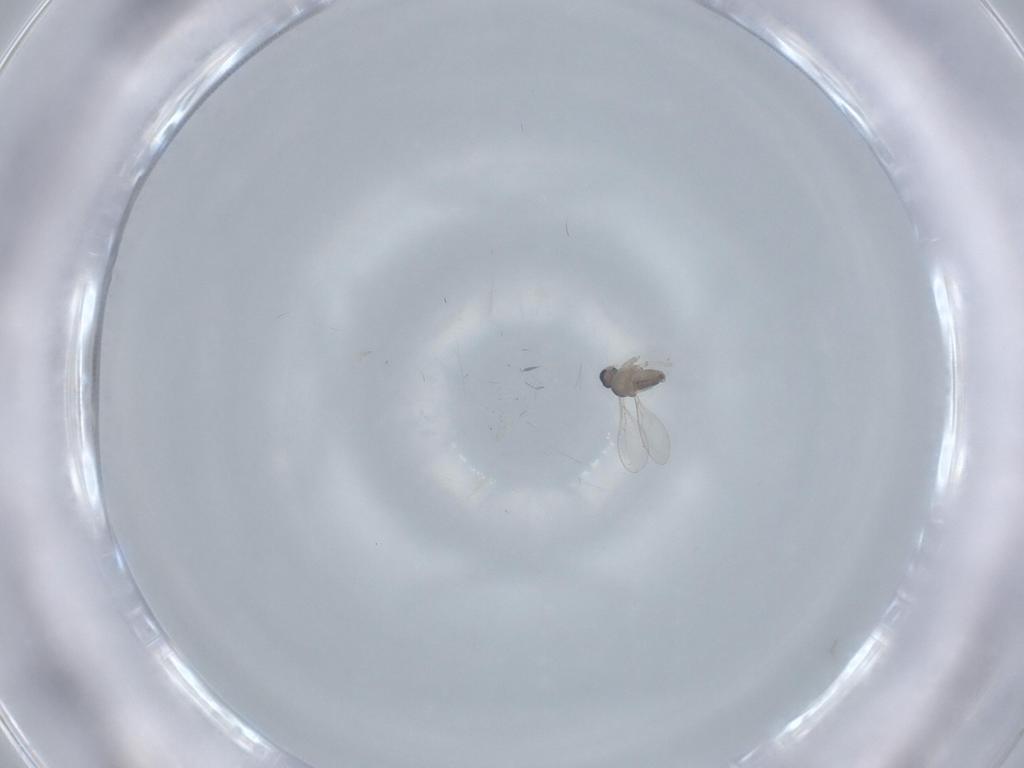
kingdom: Animalia
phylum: Arthropoda
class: Insecta
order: Diptera
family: Cecidomyiidae
